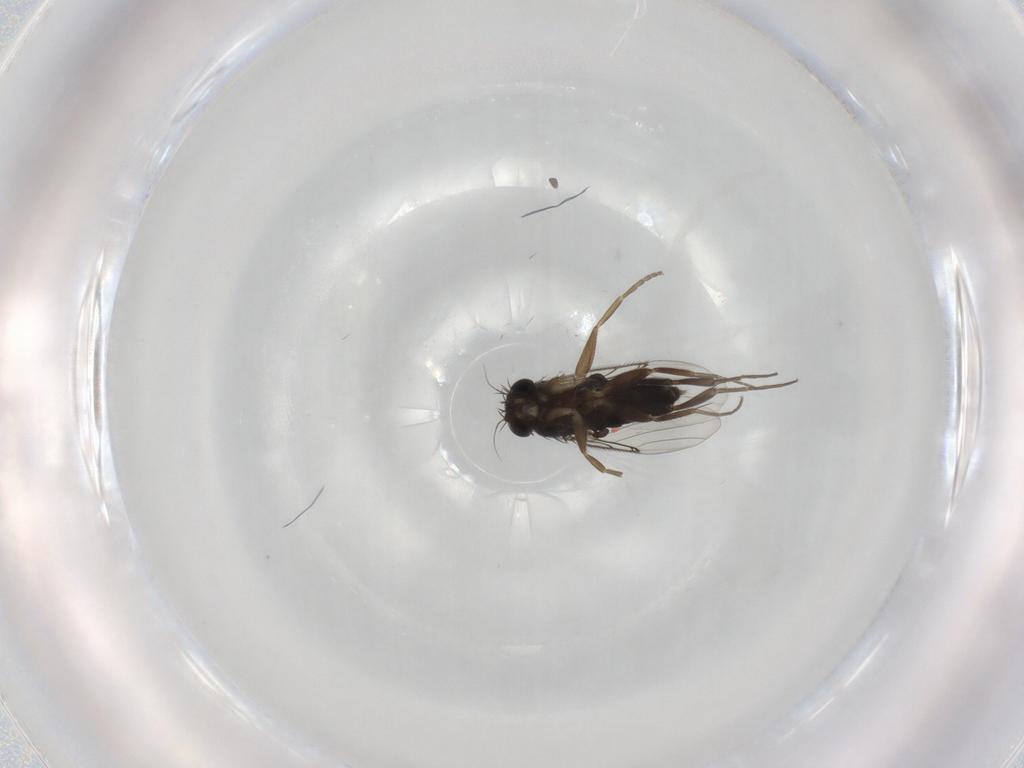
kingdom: Animalia
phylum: Arthropoda
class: Insecta
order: Diptera
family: Phoridae
